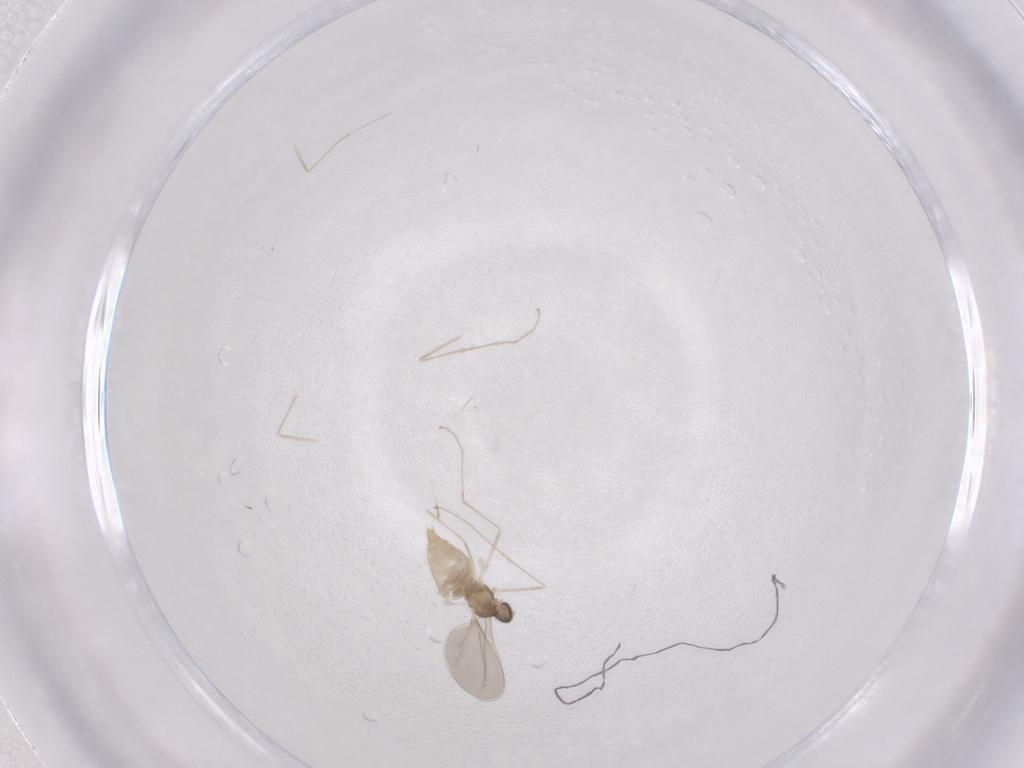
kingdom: Animalia
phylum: Arthropoda
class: Insecta
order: Diptera
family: Cecidomyiidae
